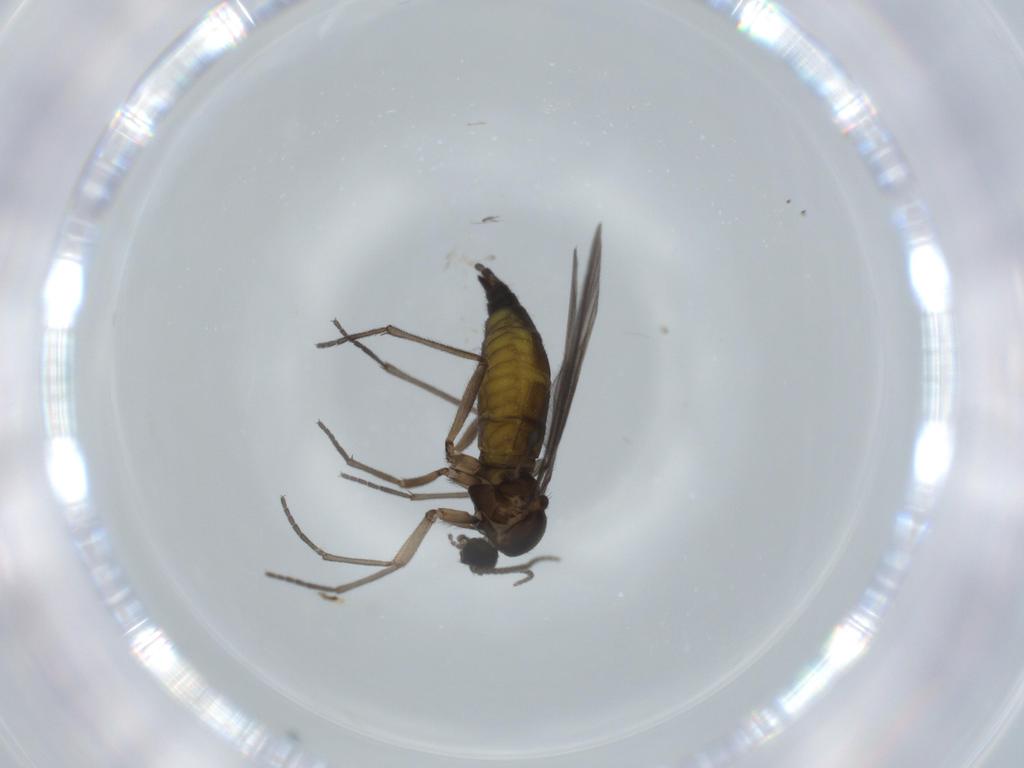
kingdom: Animalia
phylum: Arthropoda
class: Insecta
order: Diptera
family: Sciaridae
